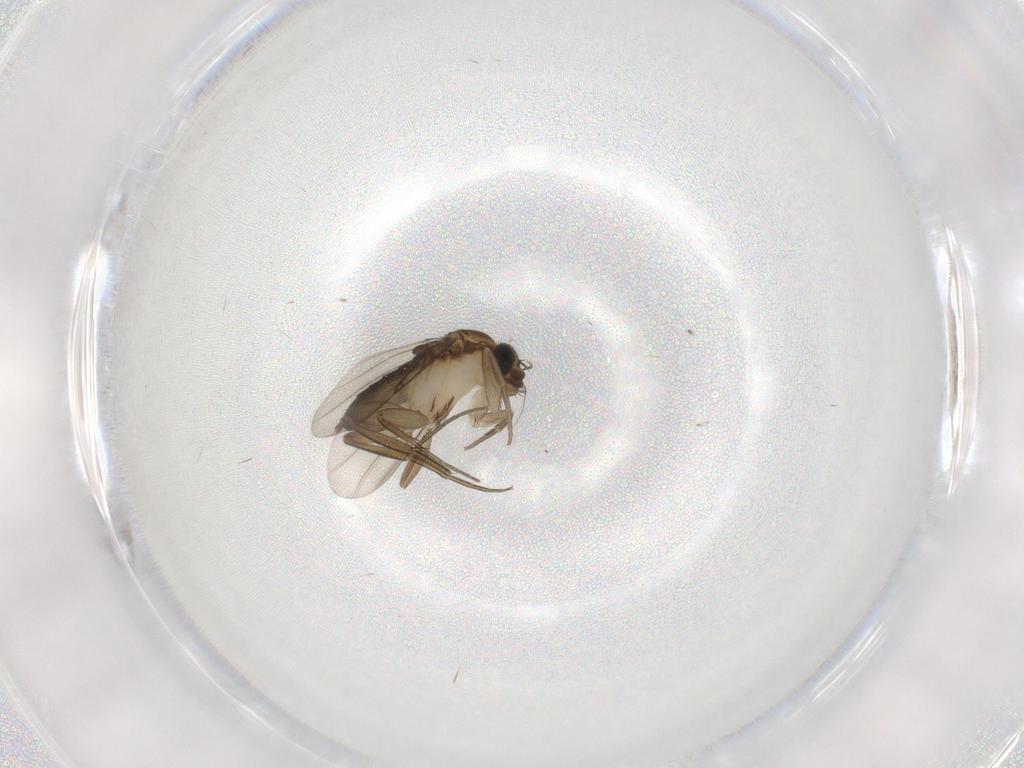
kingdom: Animalia
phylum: Arthropoda
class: Insecta
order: Diptera
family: Phoridae
